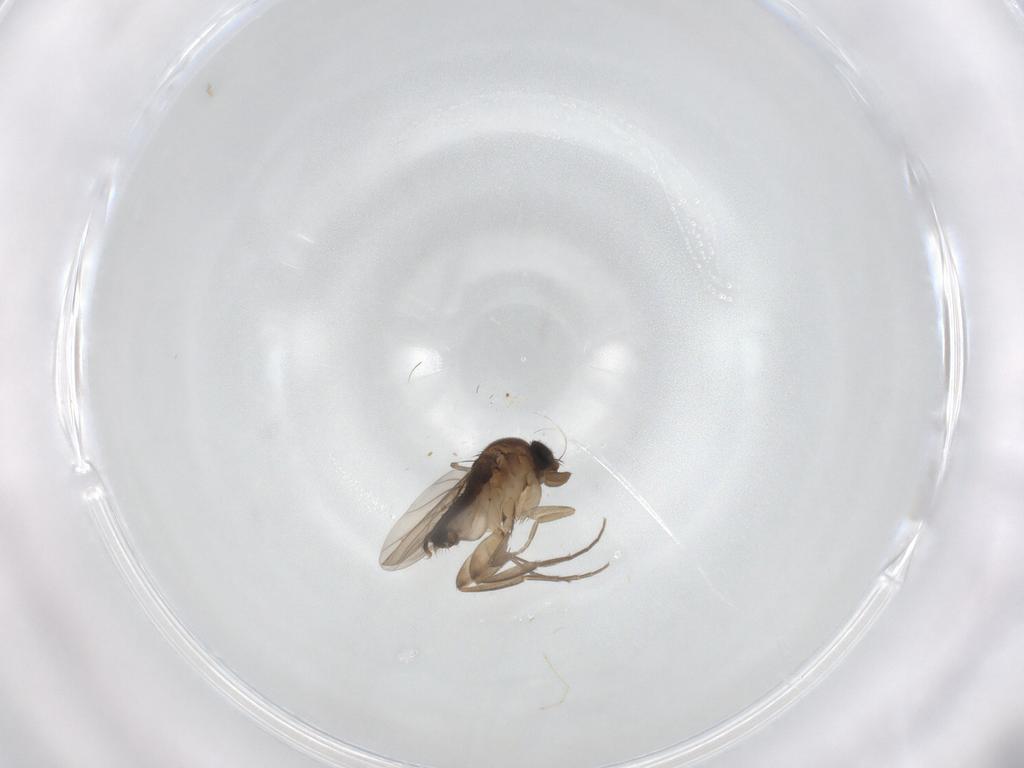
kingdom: Animalia
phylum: Arthropoda
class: Insecta
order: Diptera
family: Phoridae
